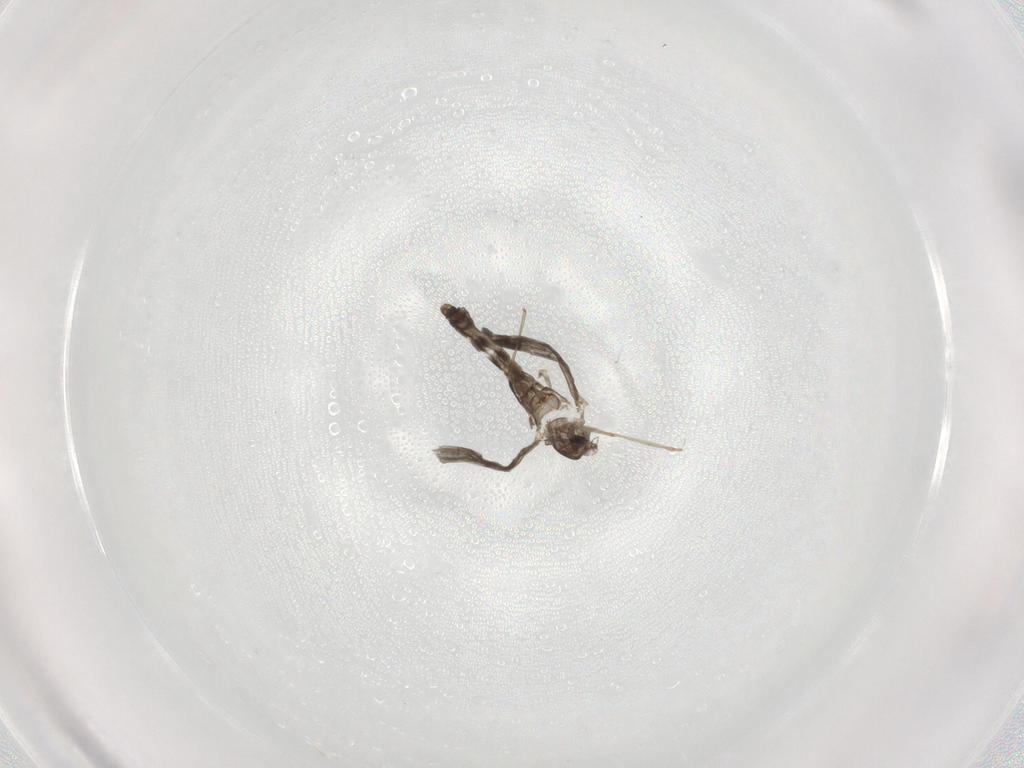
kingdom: Animalia
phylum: Arthropoda
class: Insecta
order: Diptera
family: Cecidomyiidae
